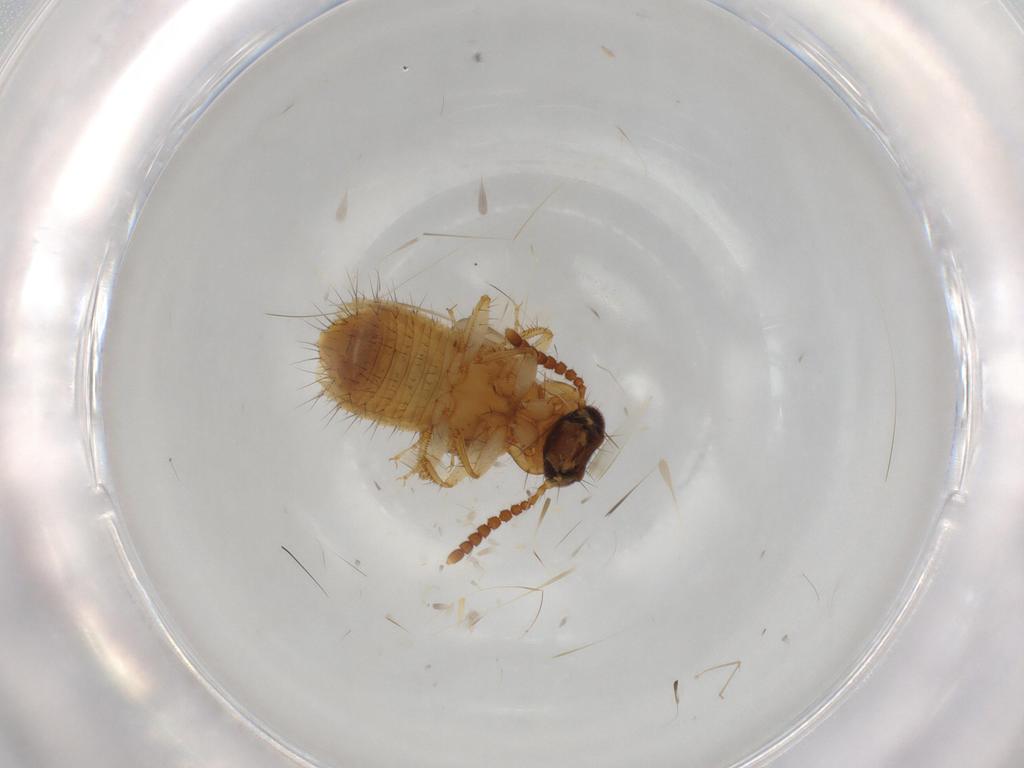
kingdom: Animalia
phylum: Arthropoda
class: Insecta
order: Coleoptera
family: Staphylinidae
